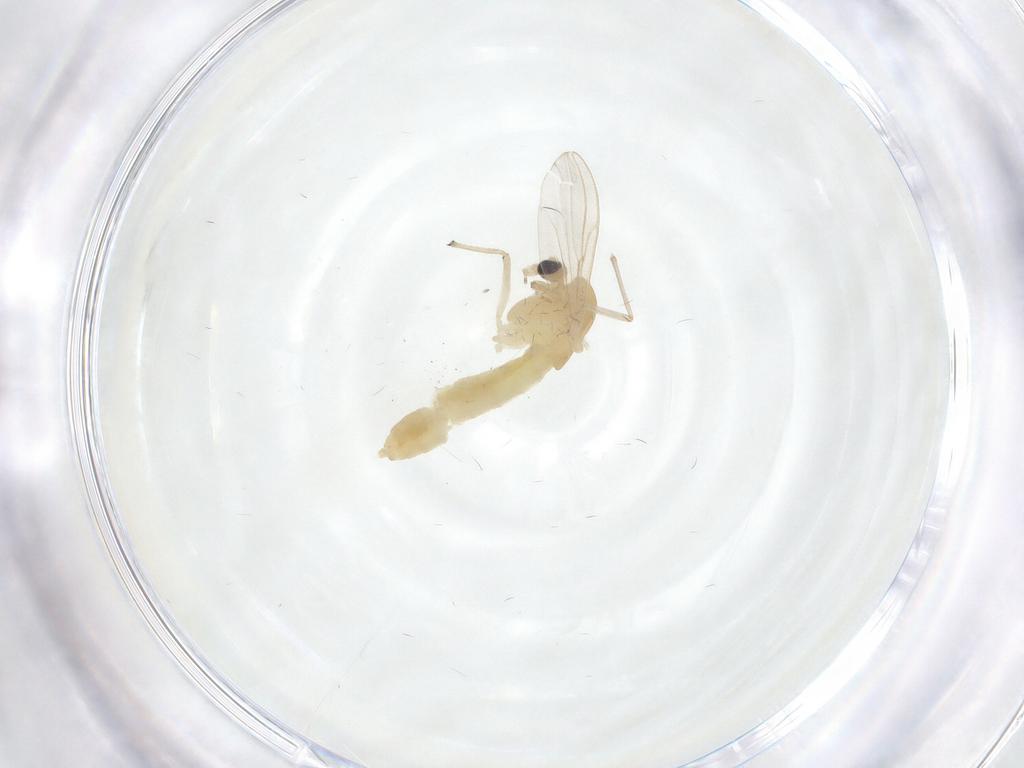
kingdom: Animalia
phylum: Arthropoda
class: Insecta
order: Diptera
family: Chironomidae
